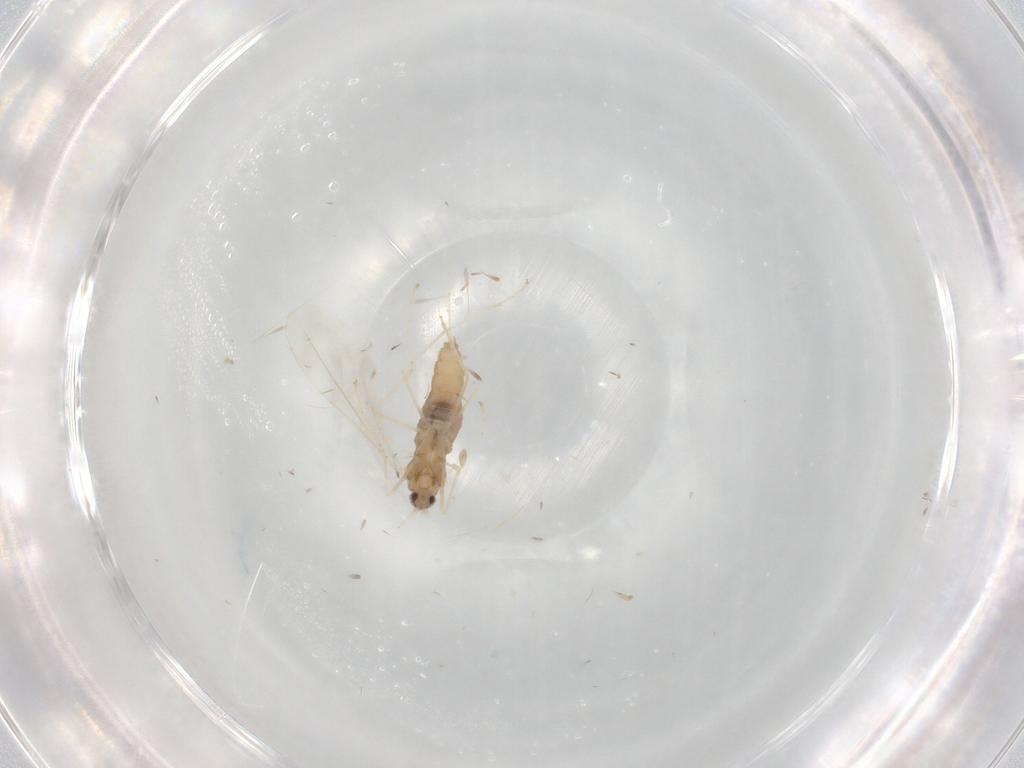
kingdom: Animalia
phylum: Arthropoda
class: Insecta
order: Diptera
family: Cecidomyiidae
